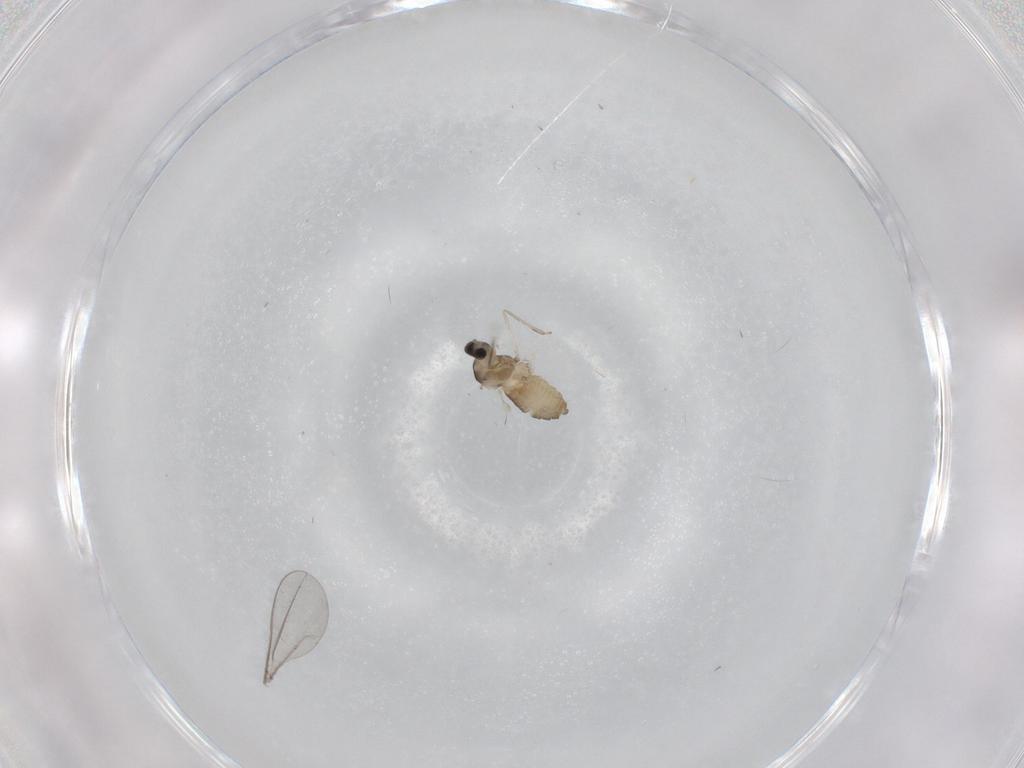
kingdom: Animalia
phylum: Arthropoda
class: Insecta
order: Diptera
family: Cecidomyiidae
